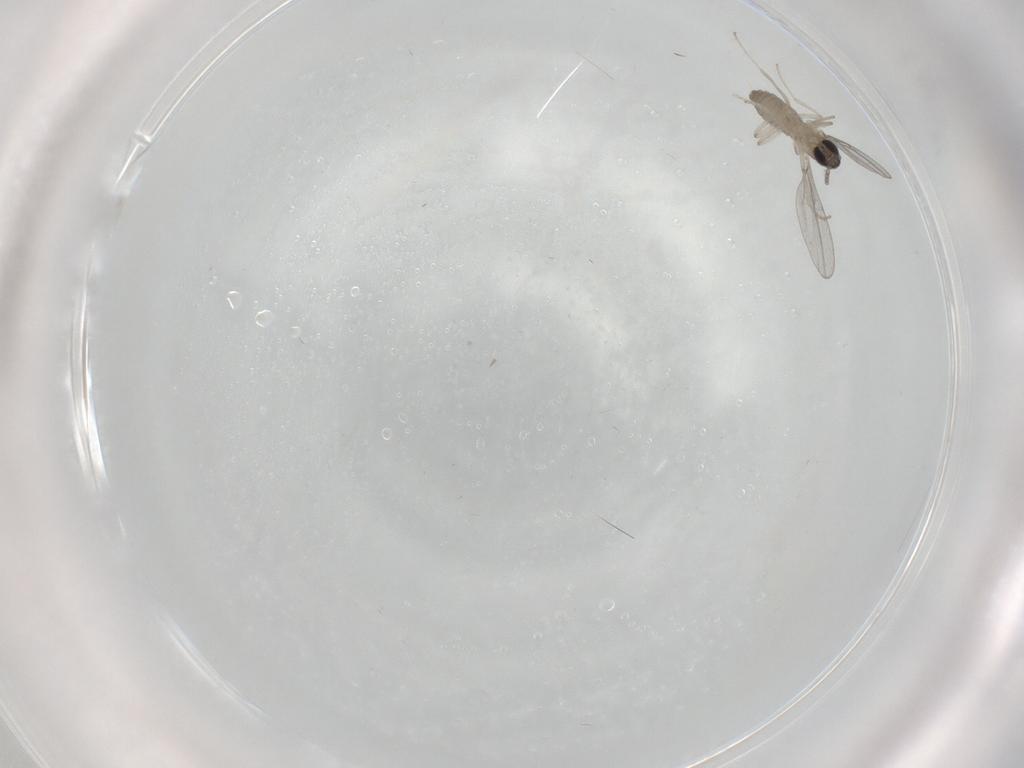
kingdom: Animalia
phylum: Arthropoda
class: Insecta
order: Diptera
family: Cecidomyiidae
